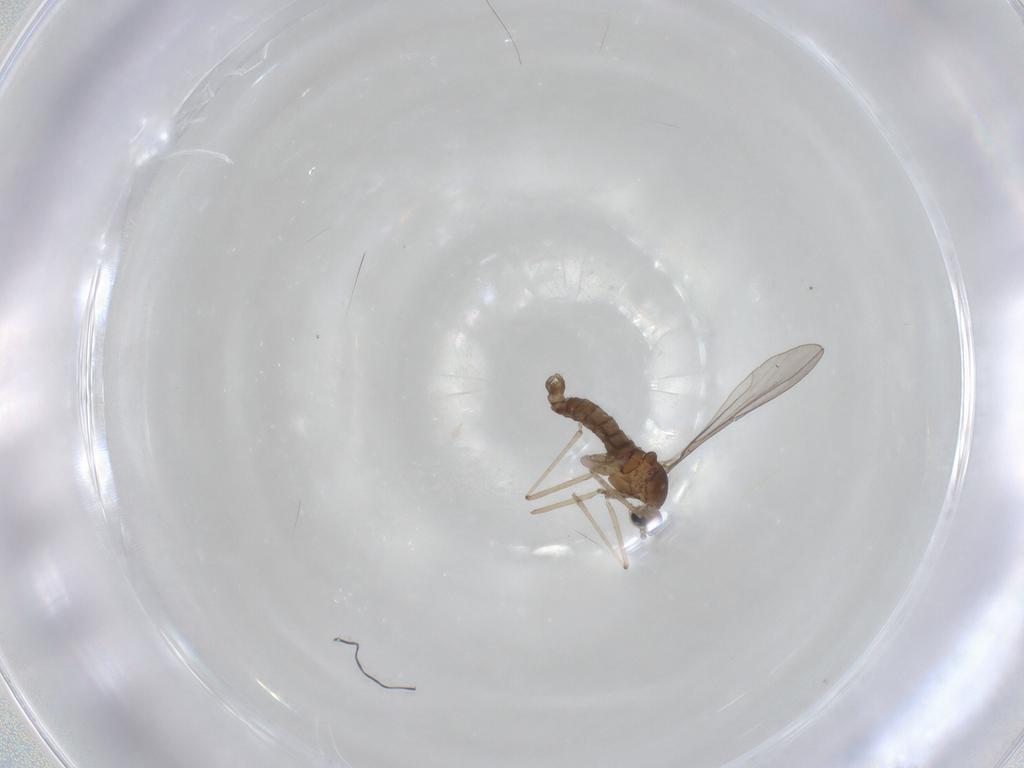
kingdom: Animalia
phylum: Arthropoda
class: Insecta
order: Diptera
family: Cecidomyiidae
